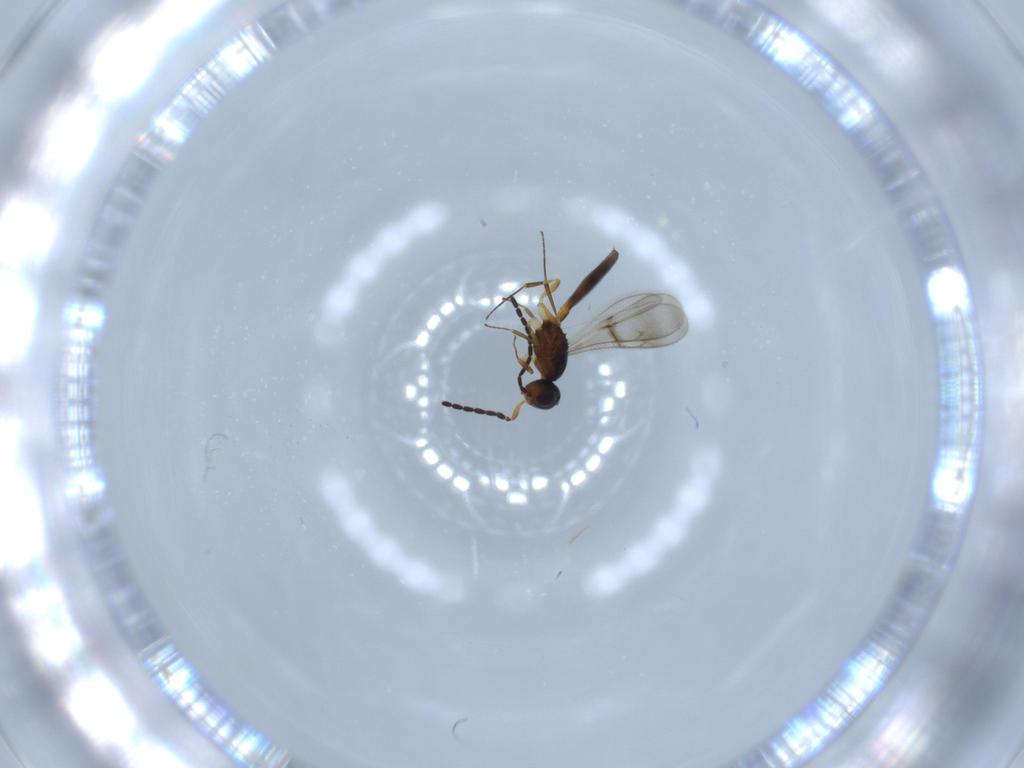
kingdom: Animalia
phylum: Arthropoda
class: Insecta
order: Hymenoptera
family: Scelionidae
